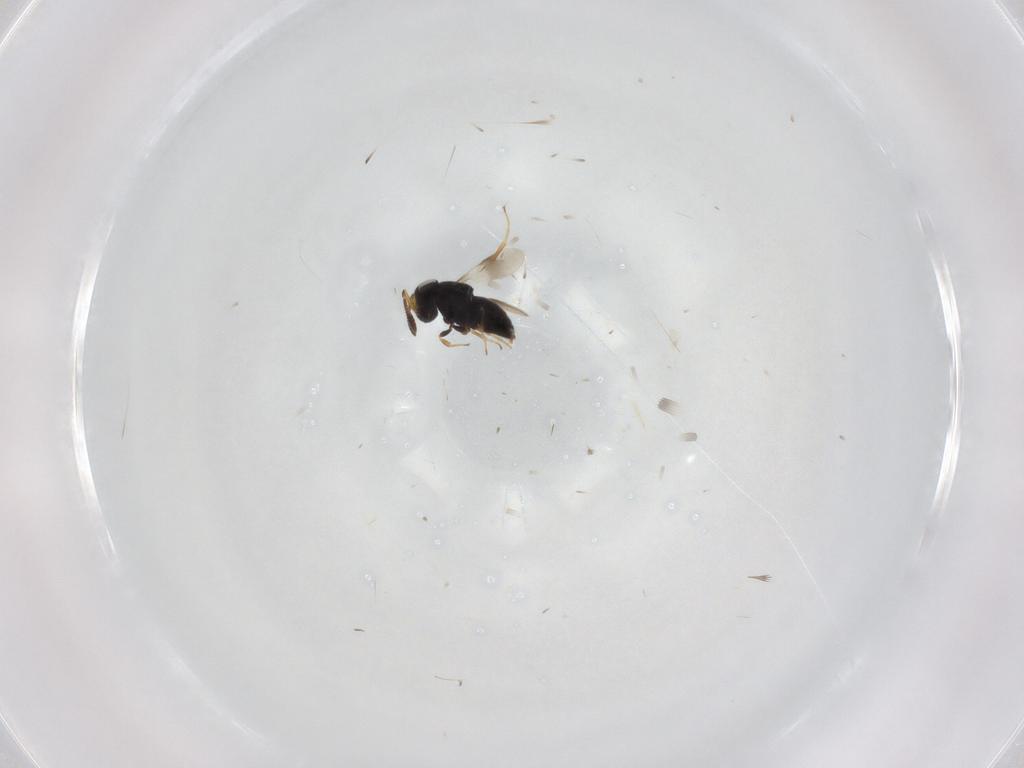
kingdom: Animalia
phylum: Arthropoda
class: Insecta
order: Hymenoptera
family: Scelionidae
